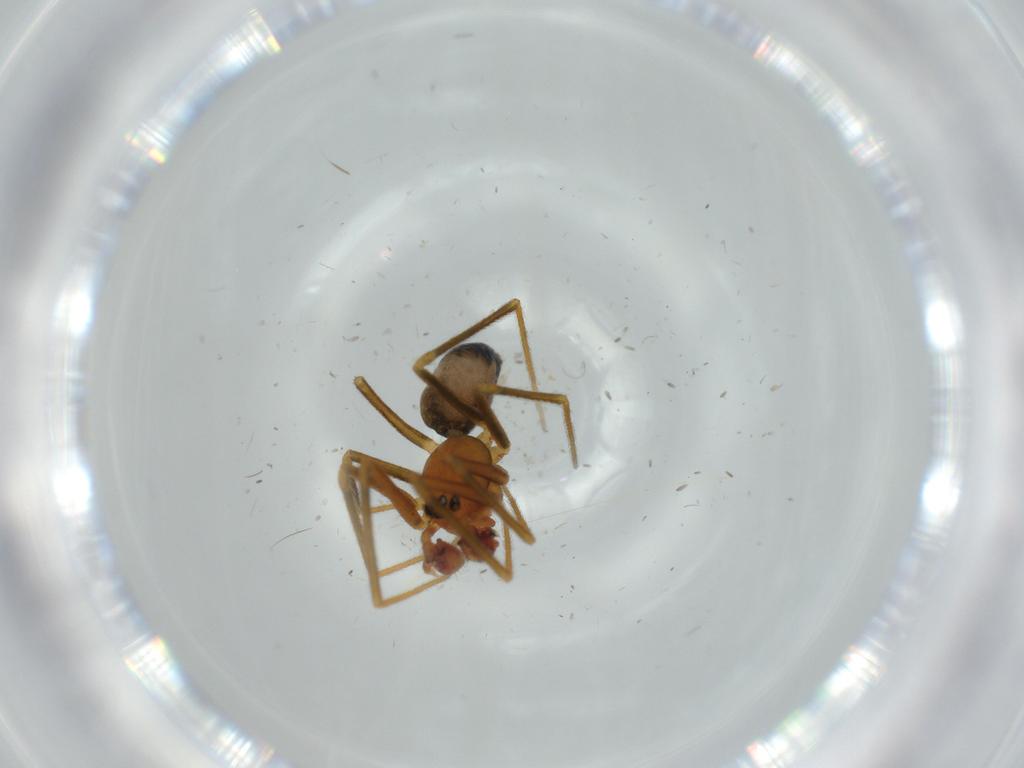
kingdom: Animalia
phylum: Arthropoda
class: Arachnida
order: Araneae
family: Linyphiidae
